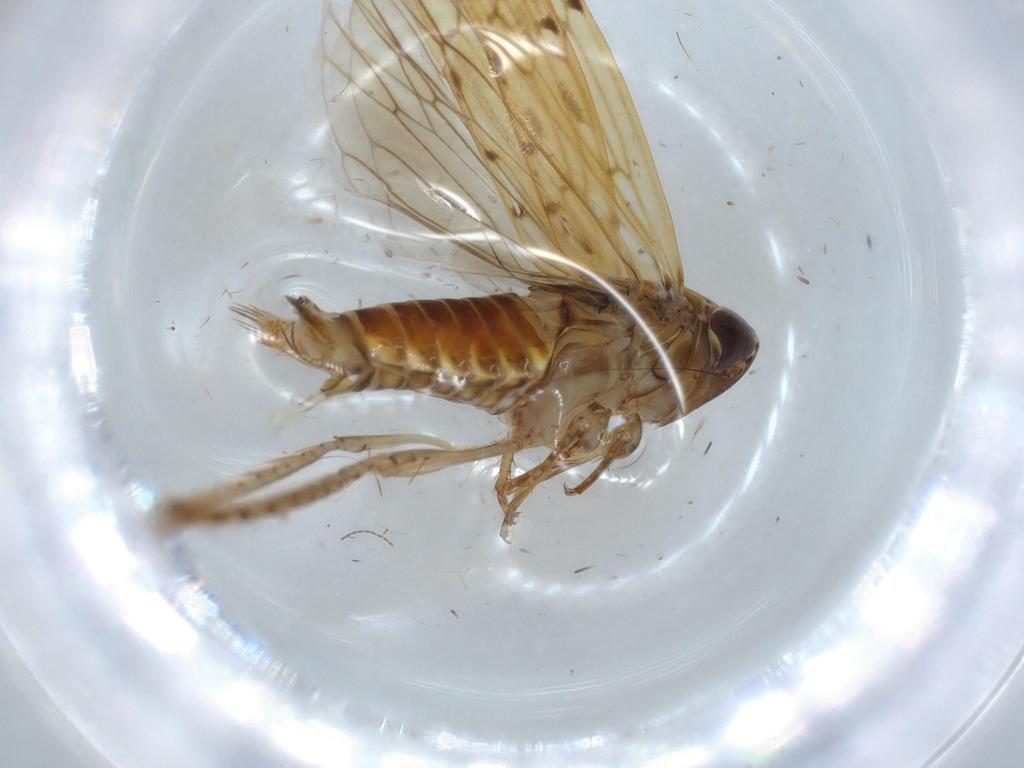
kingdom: Animalia
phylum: Arthropoda
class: Insecta
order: Hemiptera
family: Cicadellidae
